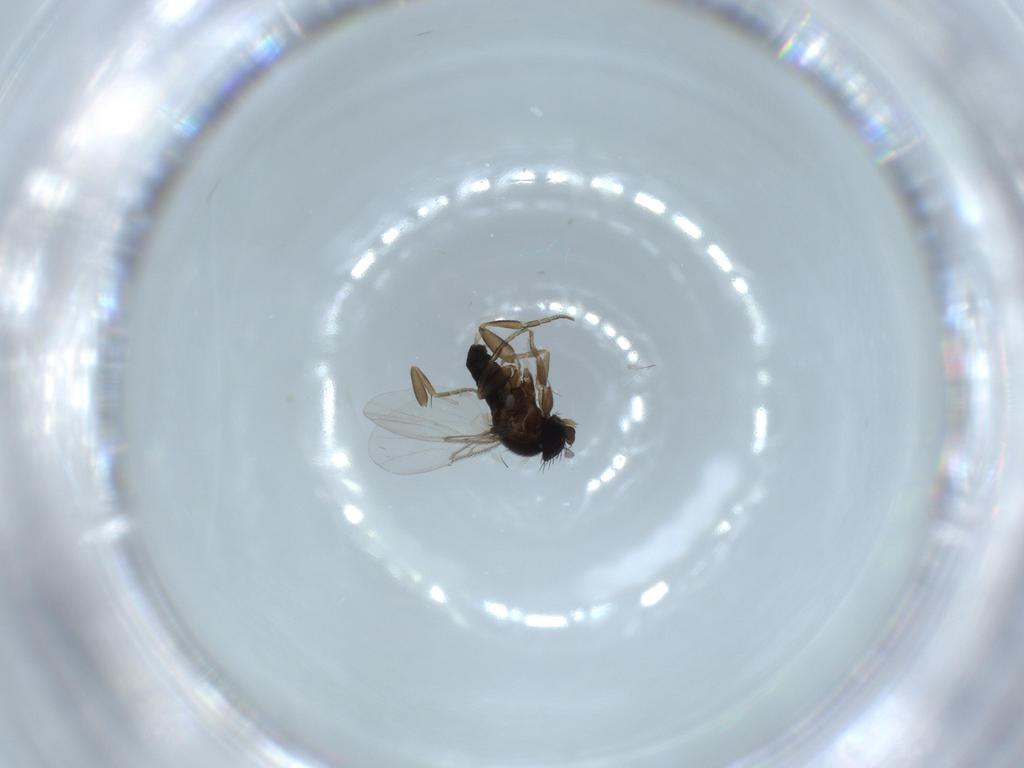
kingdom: Animalia
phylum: Arthropoda
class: Insecta
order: Diptera
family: Phoridae
